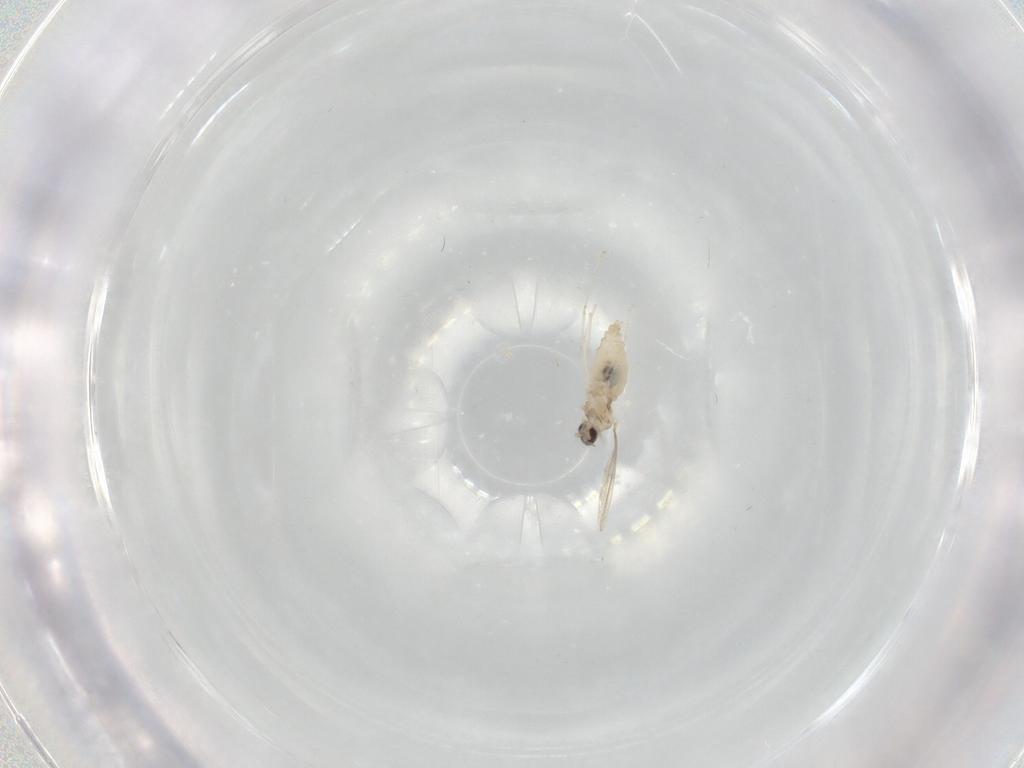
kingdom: Animalia
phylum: Arthropoda
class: Insecta
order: Diptera
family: Cecidomyiidae
